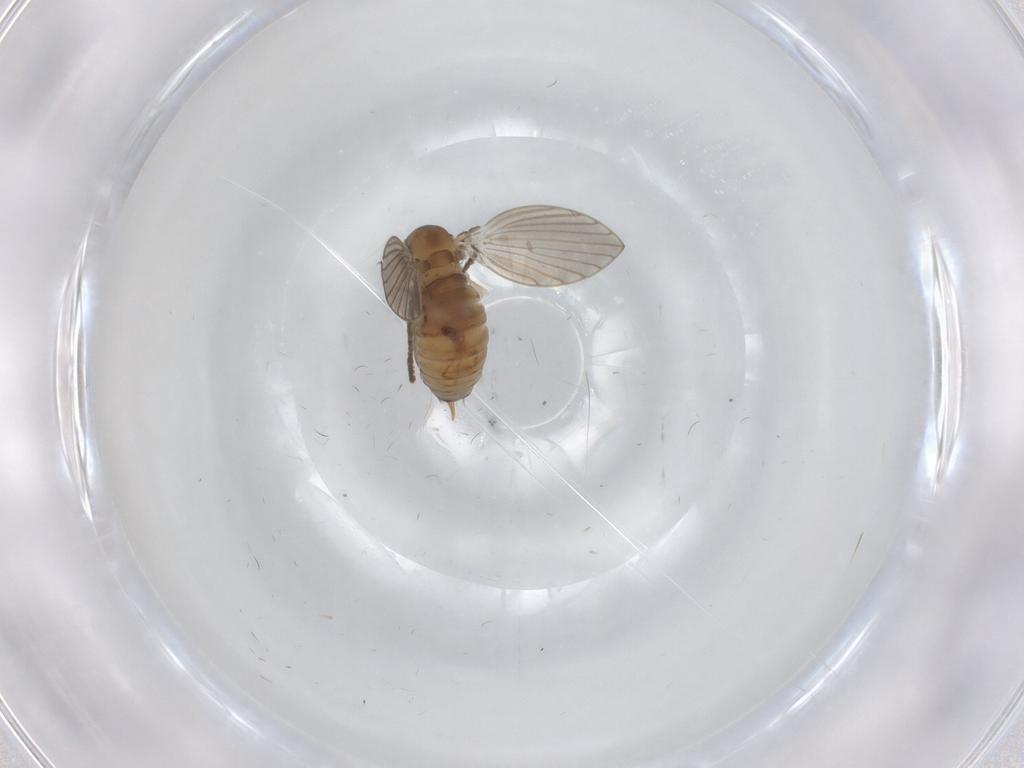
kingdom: Animalia
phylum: Arthropoda
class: Insecta
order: Diptera
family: Psychodidae
